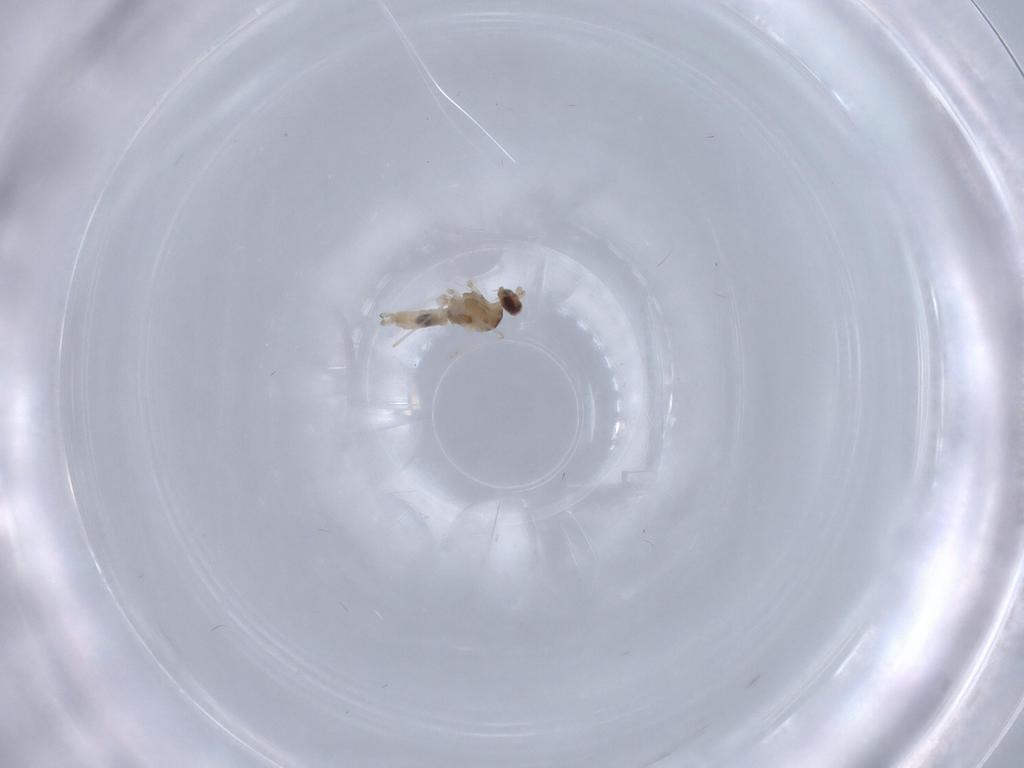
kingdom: Animalia
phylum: Arthropoda
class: Insecta
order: Diptera
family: Cecidomyiidae
